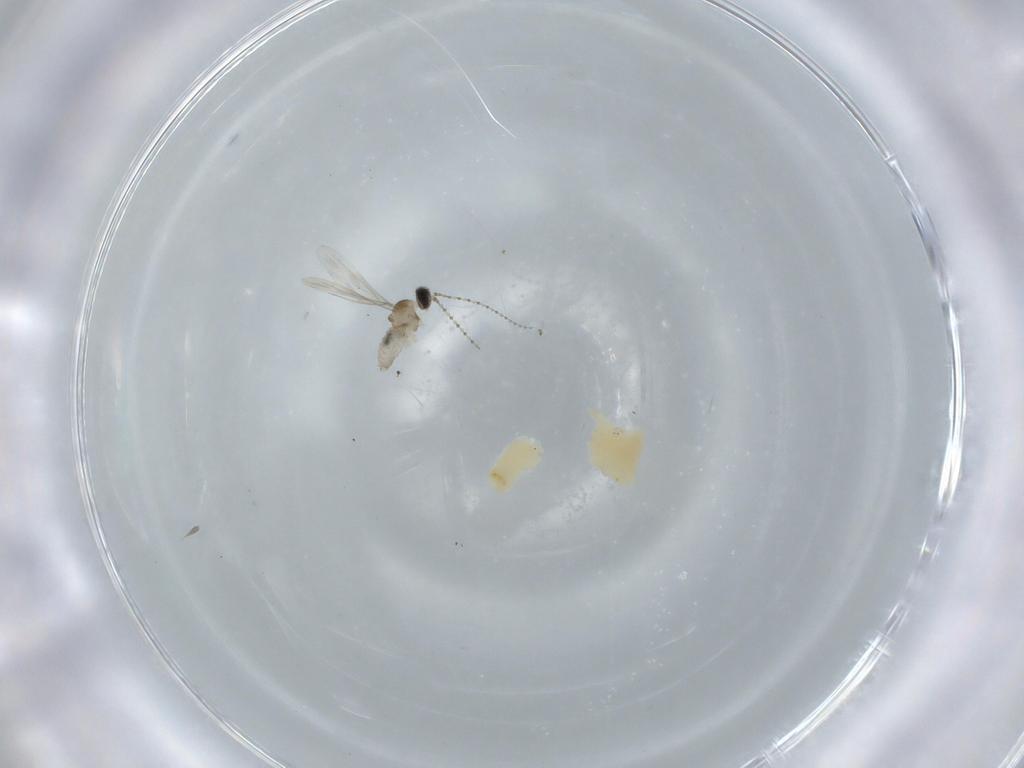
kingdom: Animalia
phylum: Arthropoda
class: Insecta
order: Diptera
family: Cecidomyiidae
